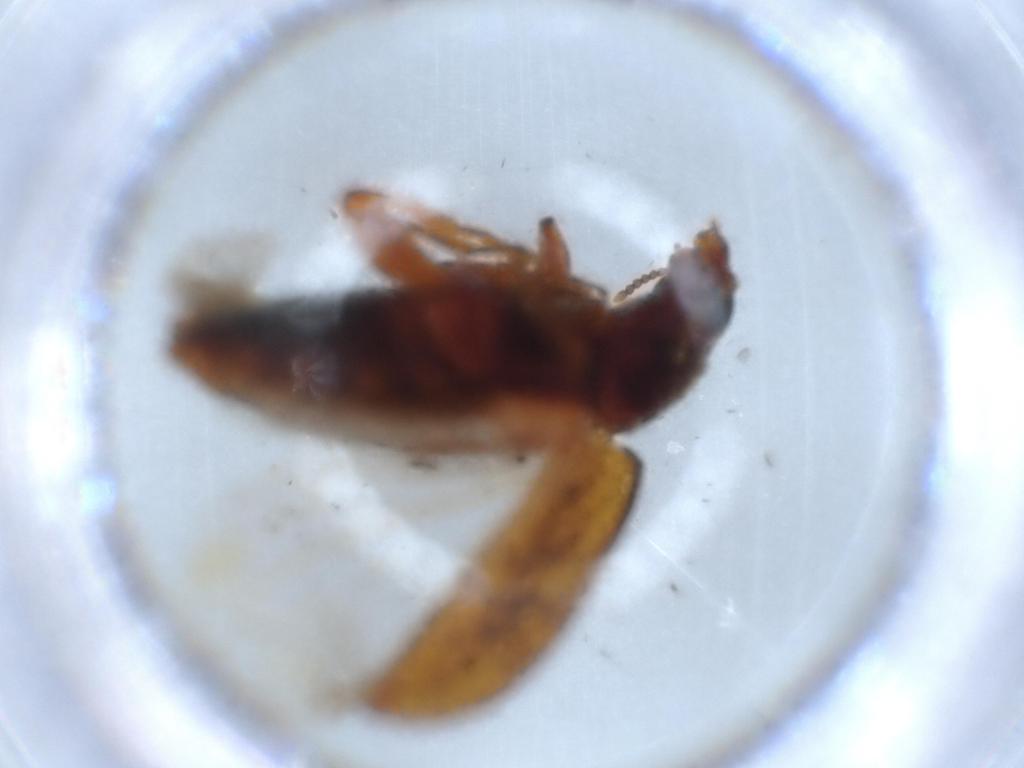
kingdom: Animalia
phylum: Arthropoda
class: Insecta
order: Coleoptera
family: Mycteridae
